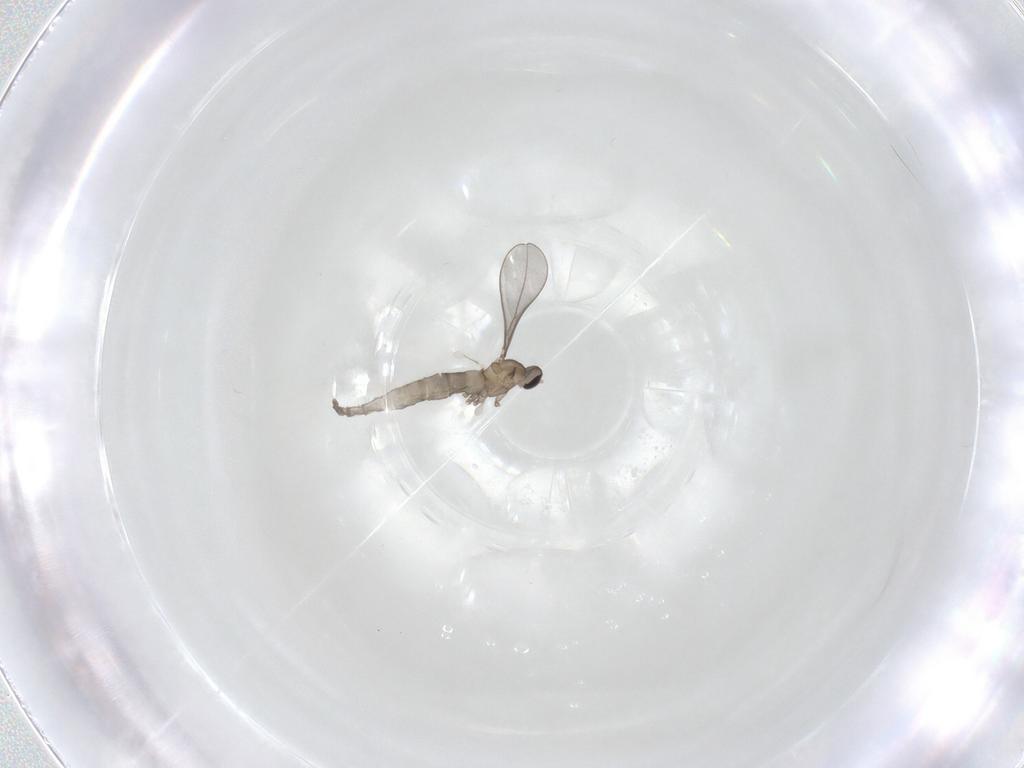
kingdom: Animalia
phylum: Arthropoda
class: Insecta
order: Diptera
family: Cecidomyiidae
